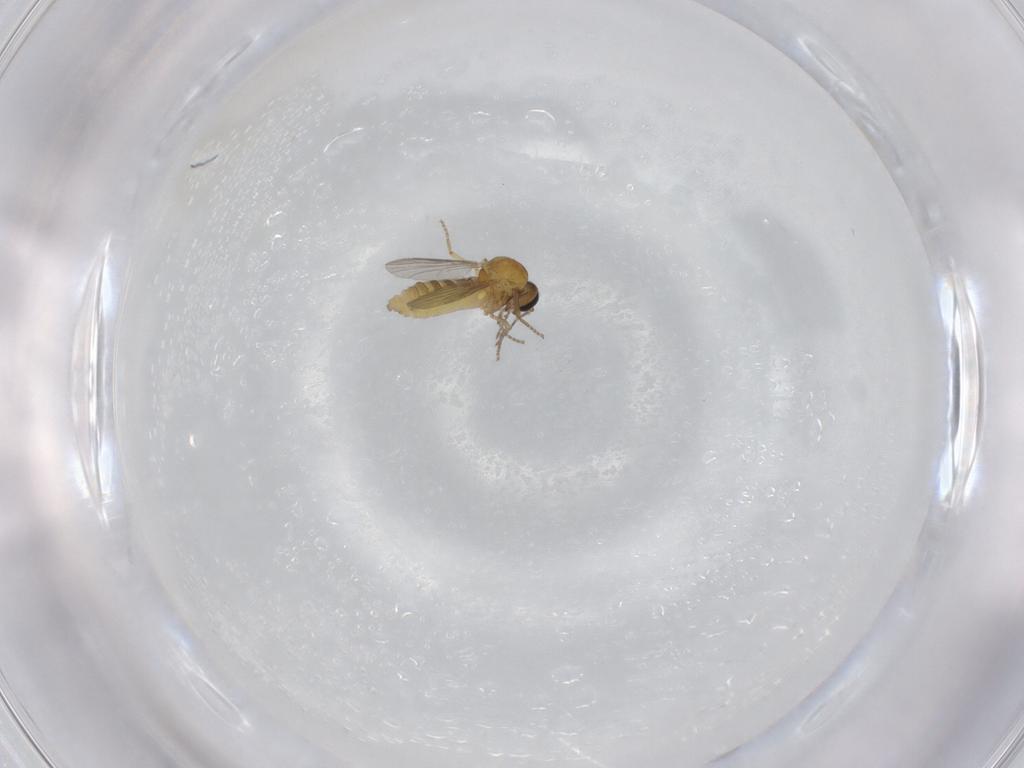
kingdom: Animalia
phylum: Arthropoda
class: Insecta
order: Diptera
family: Ceratopogonidae
